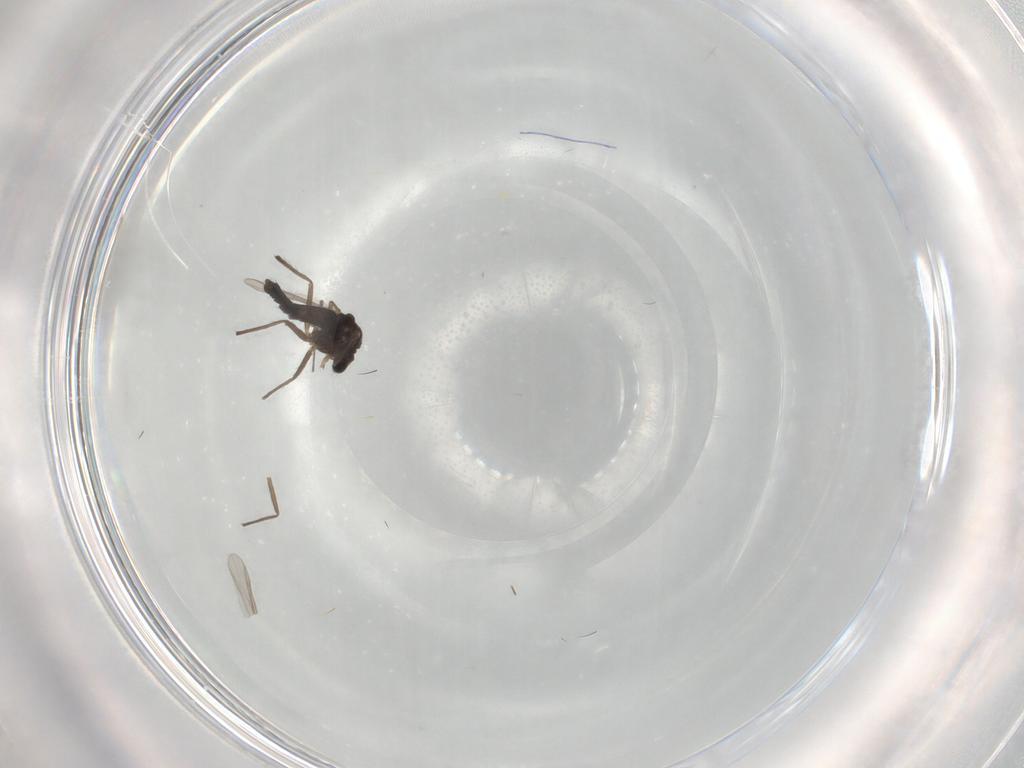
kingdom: Animalia
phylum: Arthropoda
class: Insecta
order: Diptera
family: Chironomidae
